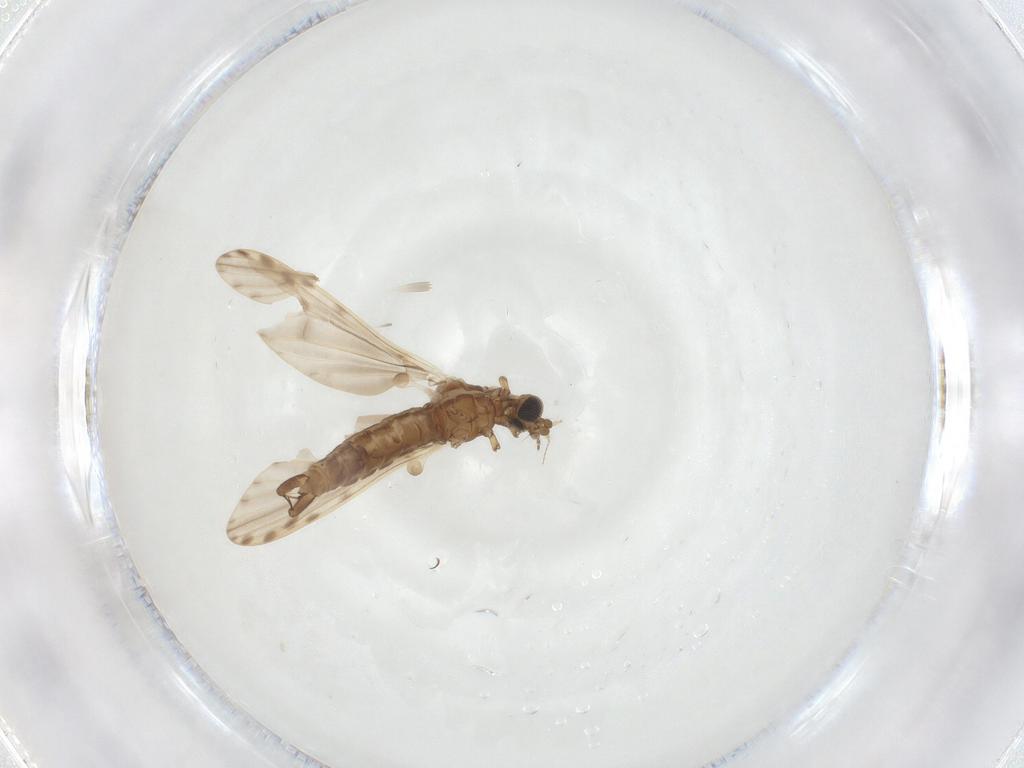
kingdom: Animalia
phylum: Arthropoda
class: Insecta
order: Diptera
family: Limoniidae
